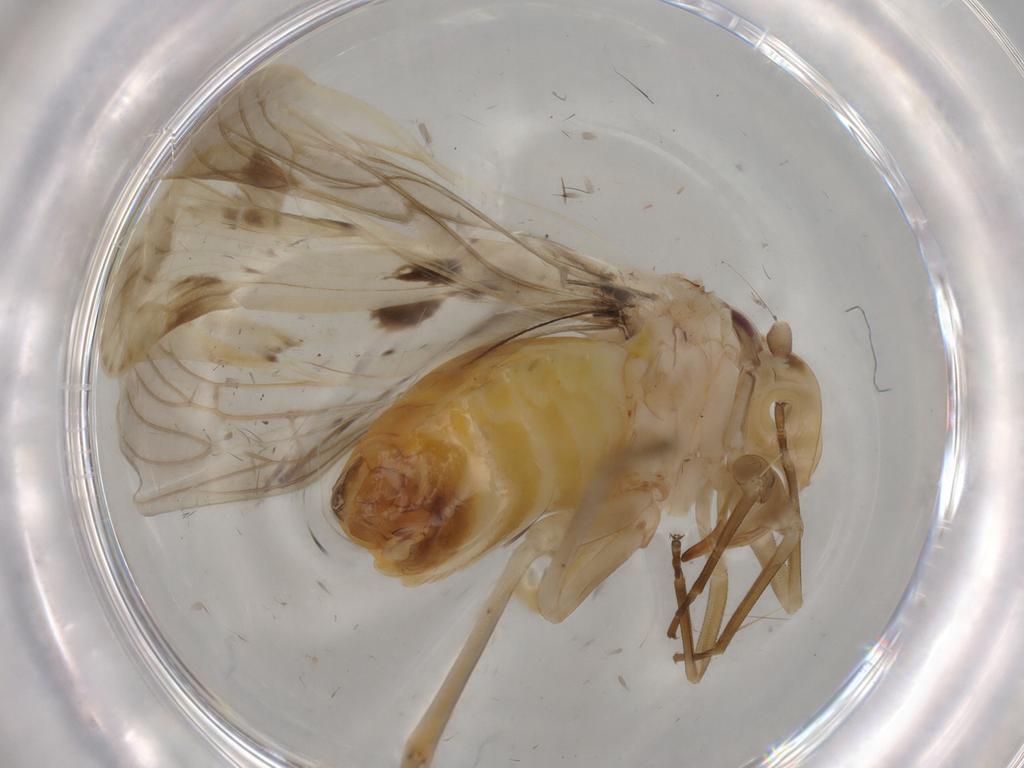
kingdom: Animalia
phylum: Arthropoda
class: Insecta
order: Hemiptera
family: Achilidae
